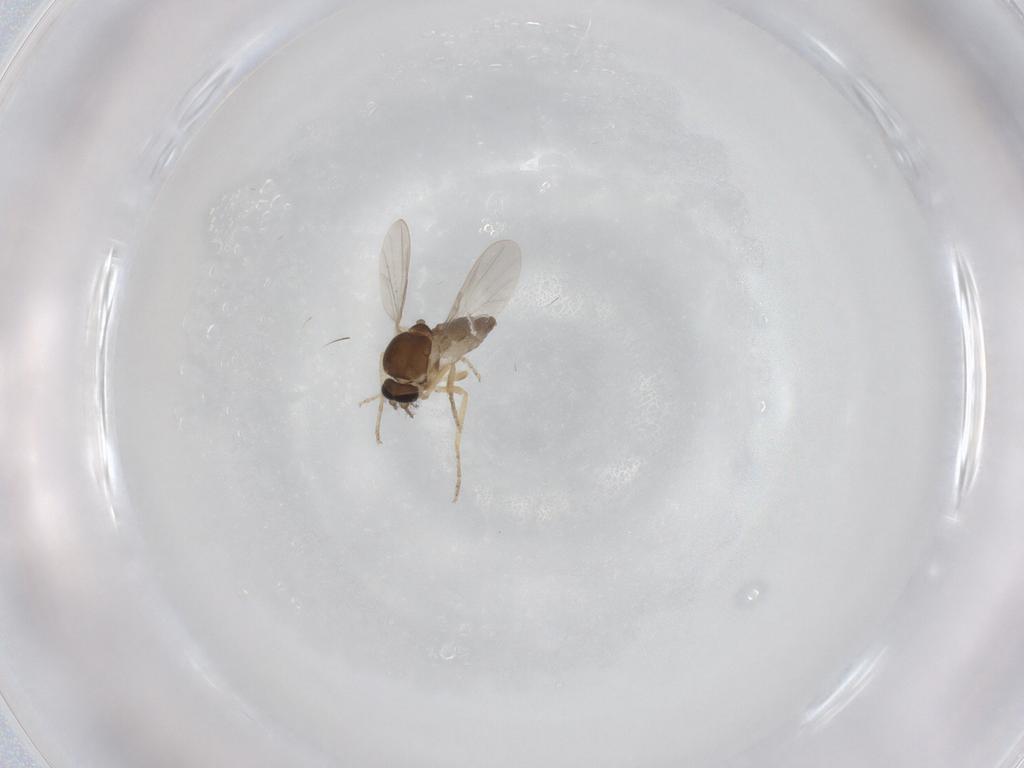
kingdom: Animalia
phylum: Arthropoda
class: Insecta
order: Diptera
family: Ceratopogonidae
